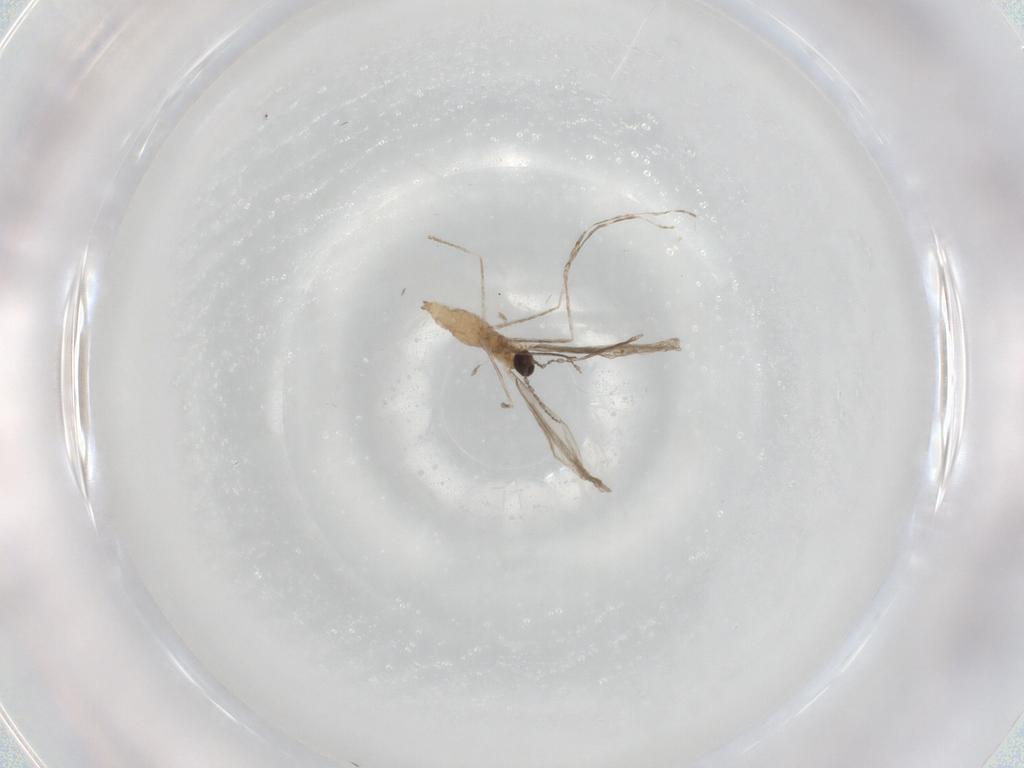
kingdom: Animalia
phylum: Arthropoda
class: Insecta
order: Diptera
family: Cecidomyiidae
